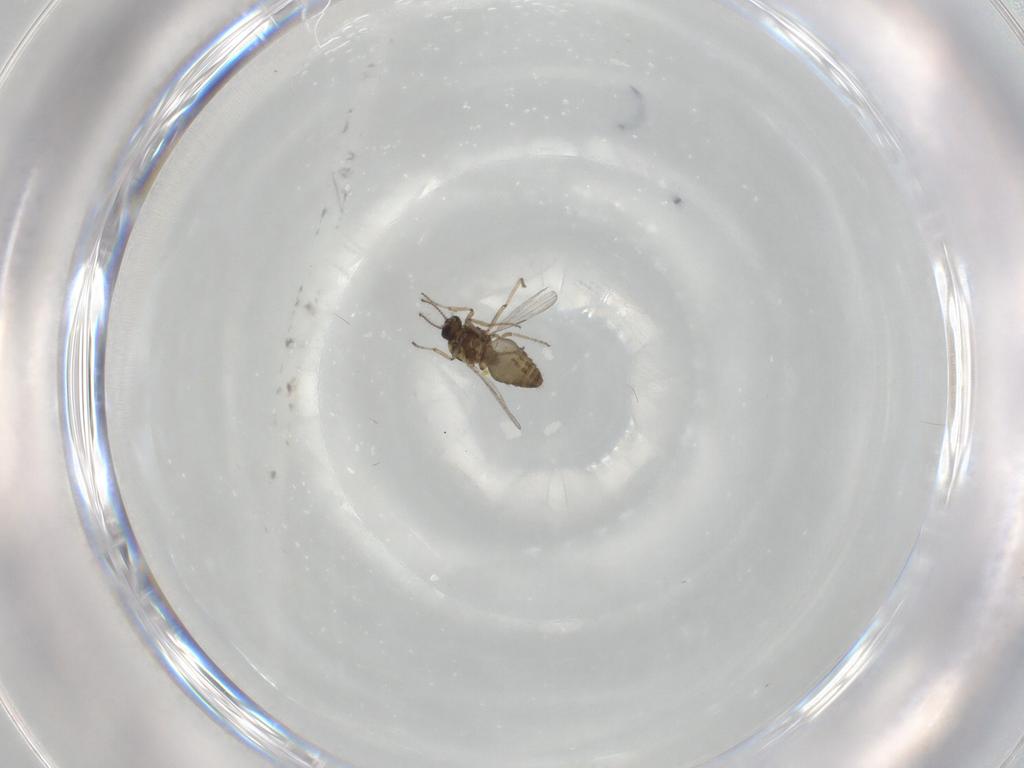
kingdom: Animalia
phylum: Arthropoda
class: Insecta
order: Diptera
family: Ceratopogonidae
